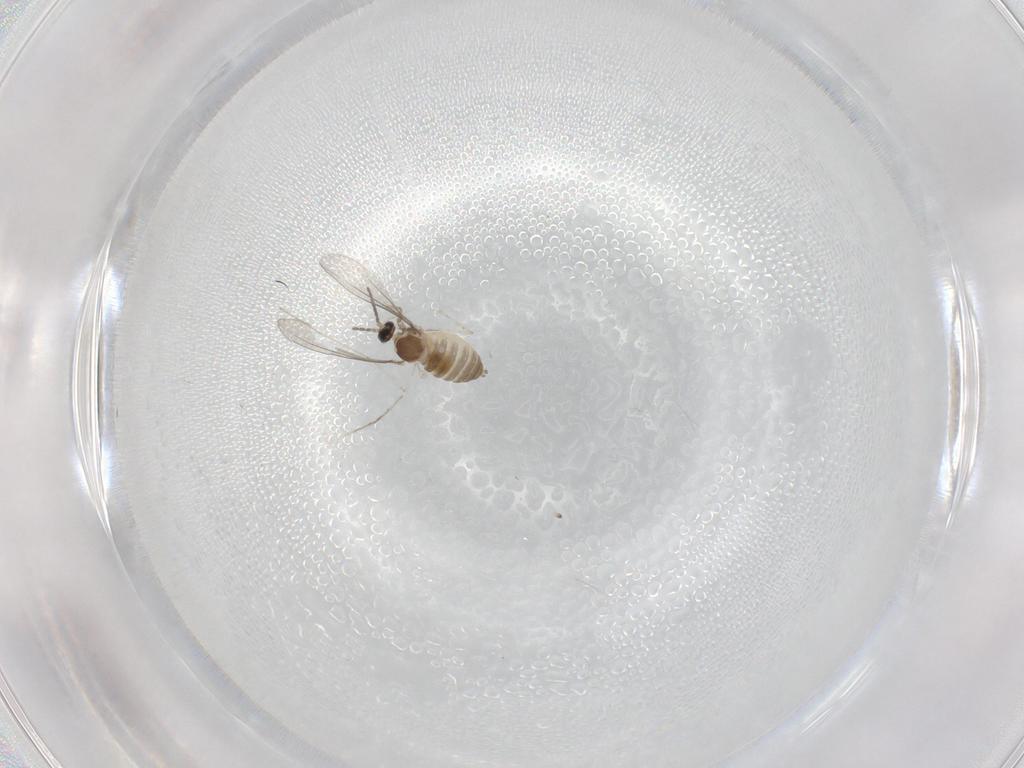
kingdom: Animalia
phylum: Arthropoda
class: Insecta
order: Diptera
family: Cecidomyiidae
